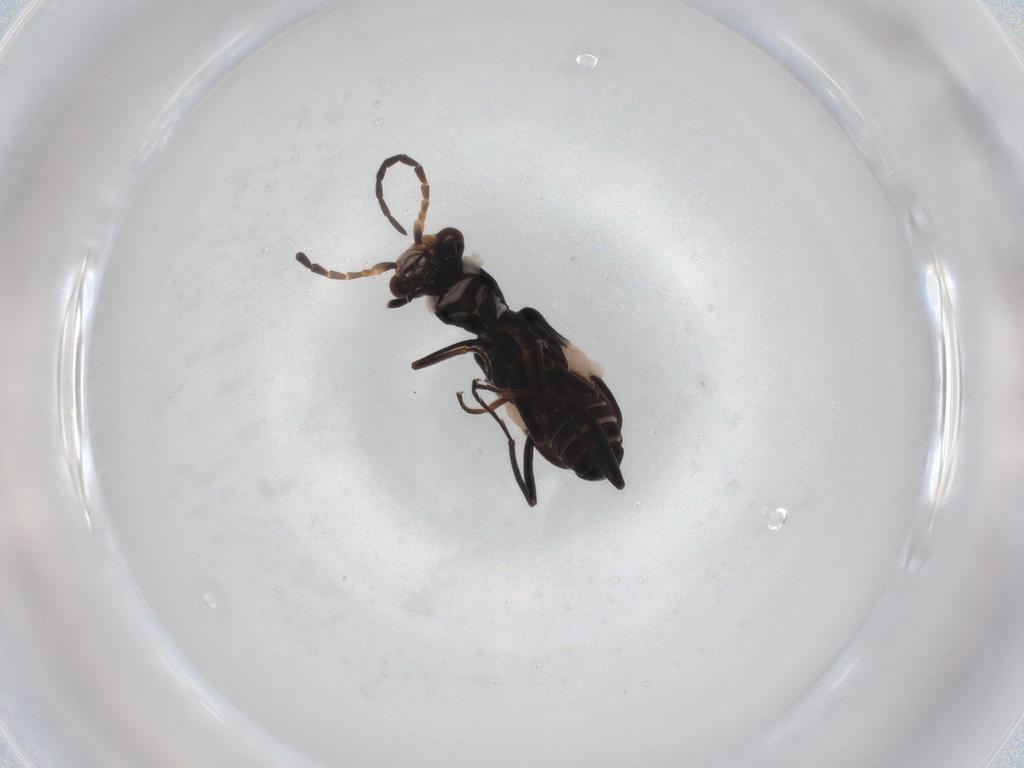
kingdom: Animalia
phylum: Arthropoda
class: Insecta
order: Coleoptera
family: Melyridae
